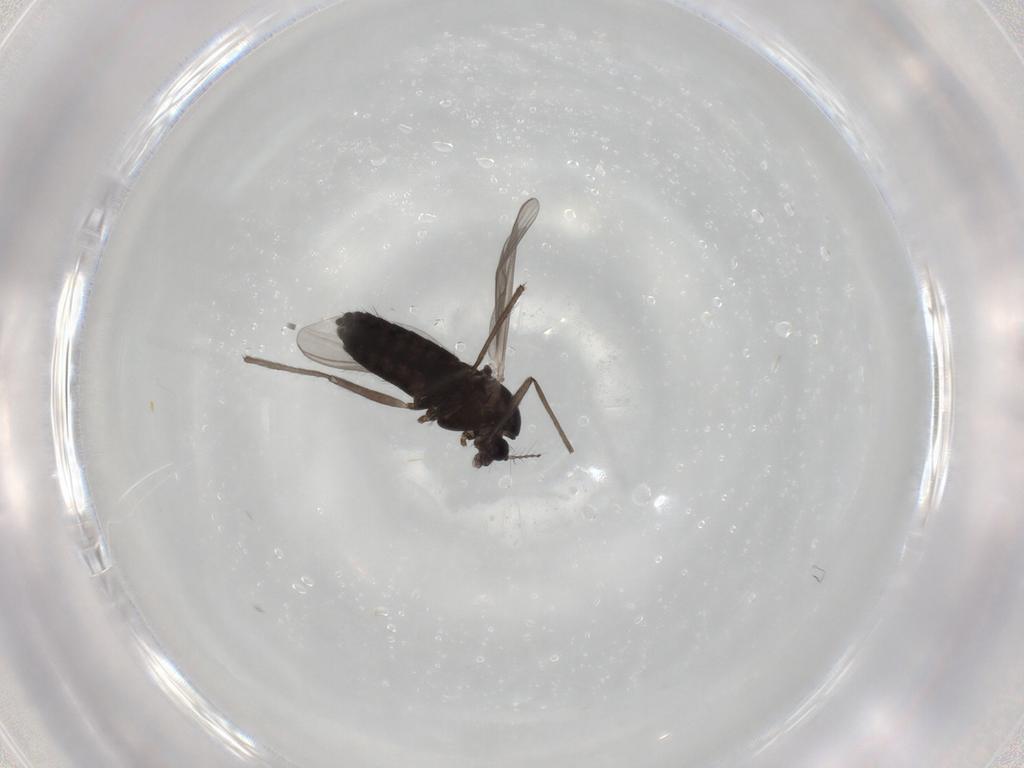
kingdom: Animalia
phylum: Arthropoda
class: Insecta
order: Diptera
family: Chironomidae
